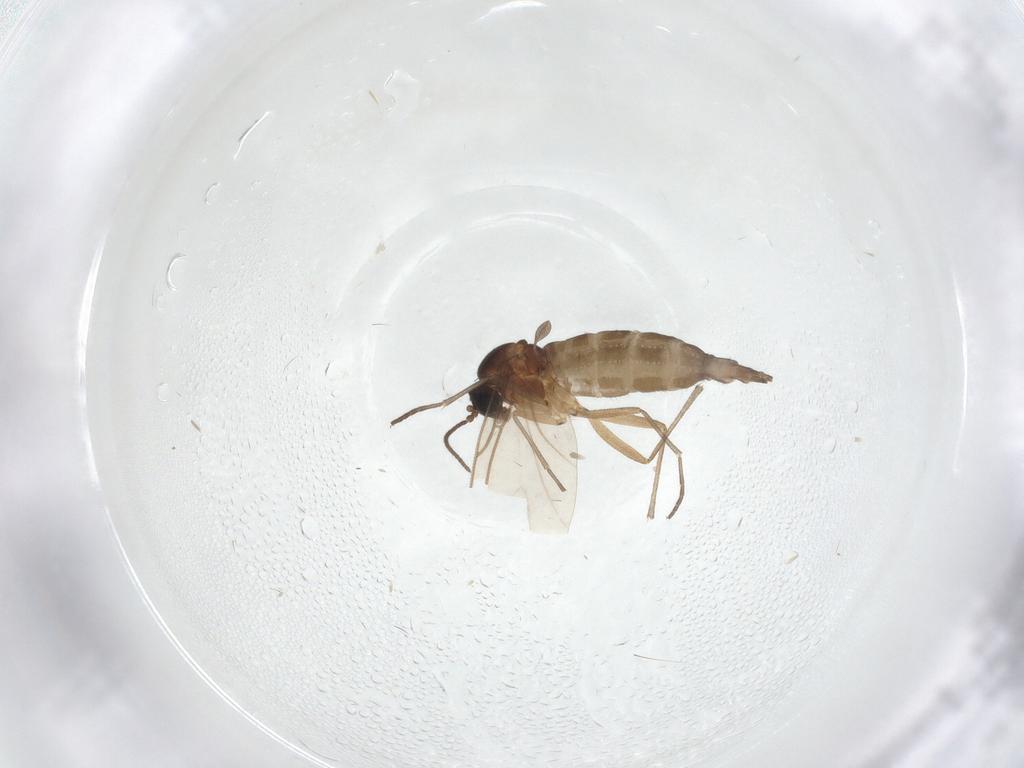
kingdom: Animalia
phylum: Arthropoda
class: Insecta
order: Diptera
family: Sciaridae
